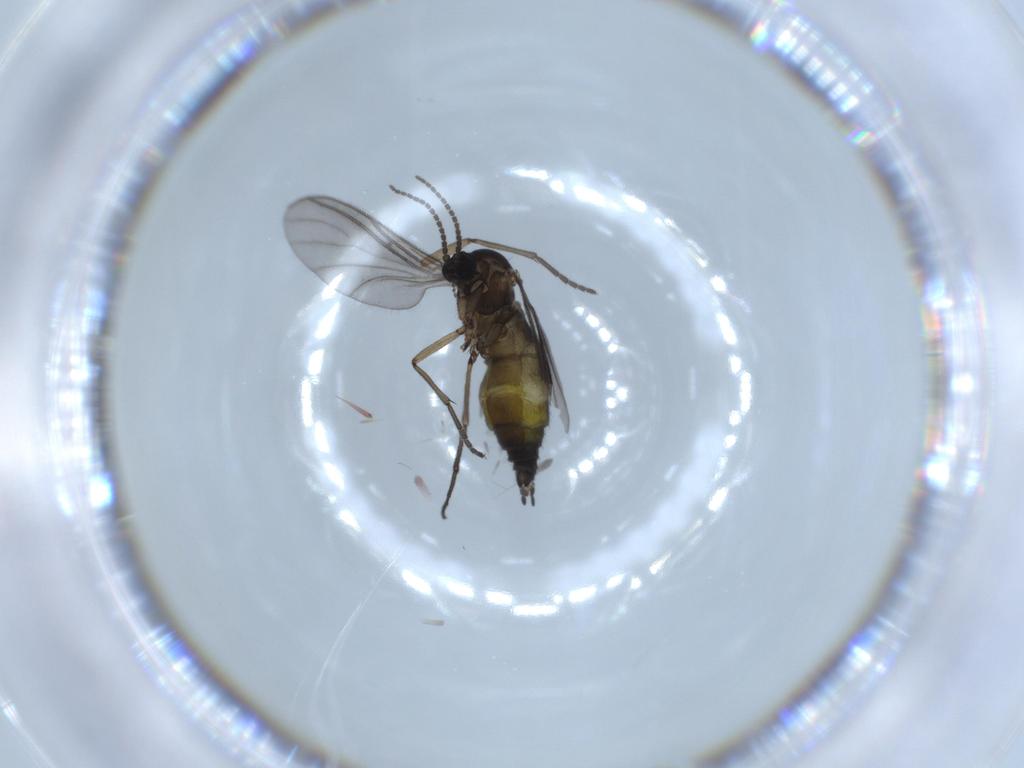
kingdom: Animalia
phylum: Arthropoda
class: Insecta
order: Diptera
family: Sciaridae
